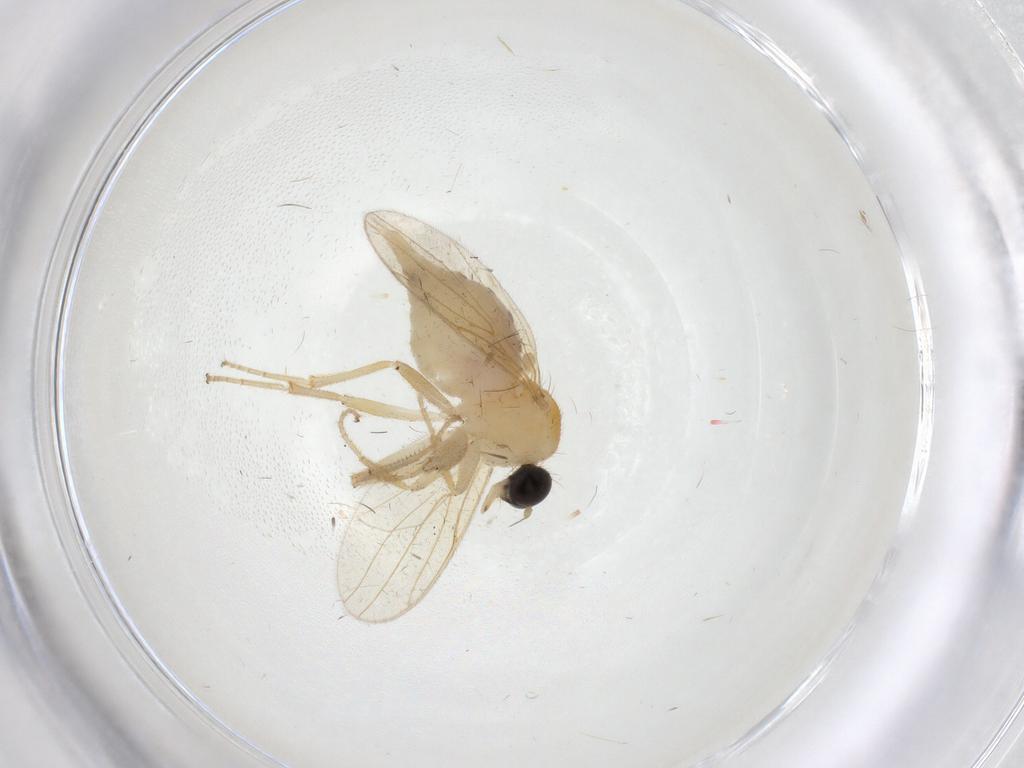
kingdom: Animalia
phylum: Arthropoda
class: Insecta
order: Diptera
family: Cecidomyiidae
